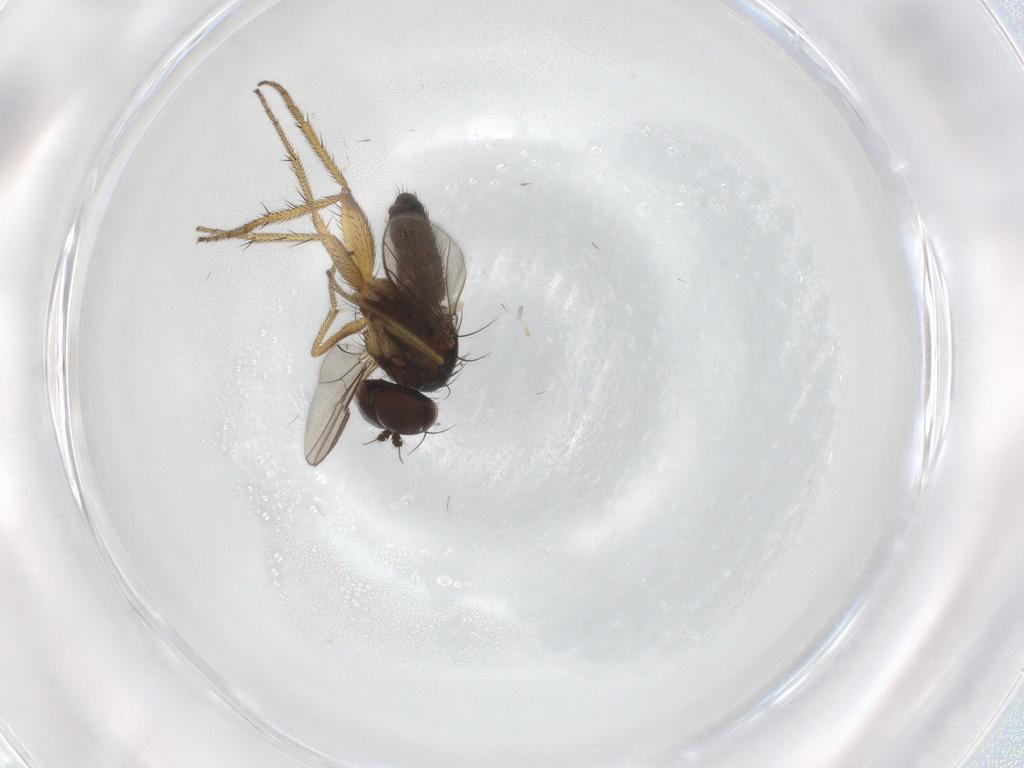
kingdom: Animalia
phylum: Arthropoda
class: Insecta
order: Diptera
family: Dolichopodidae
